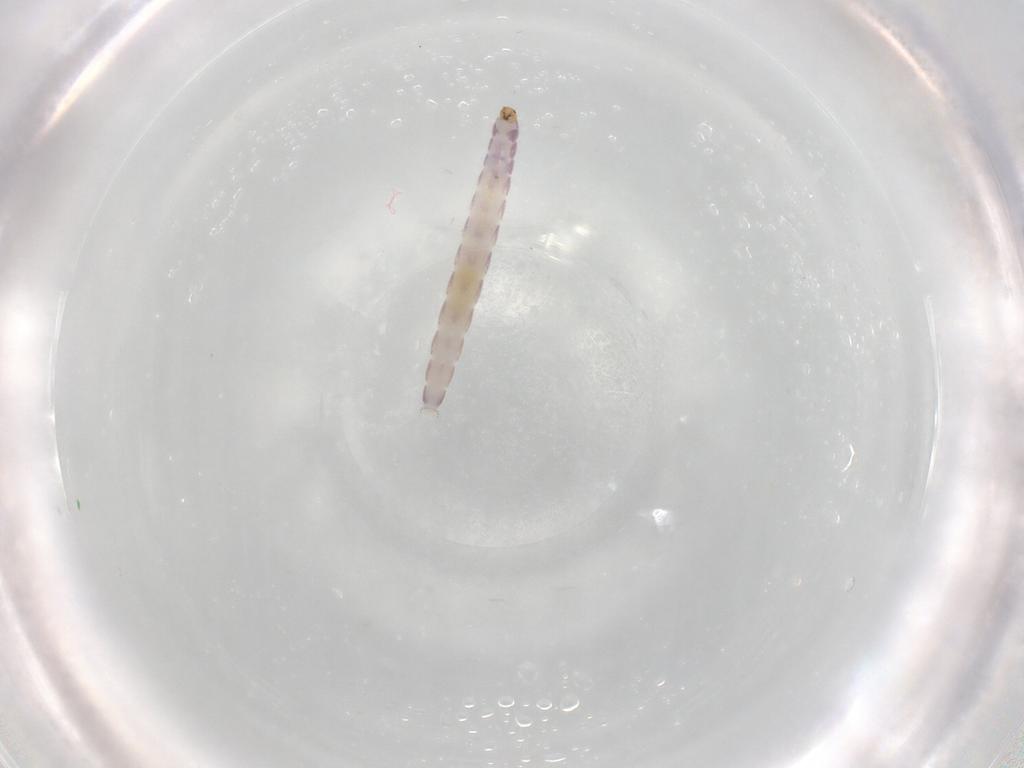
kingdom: Animalia
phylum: Arthropoda
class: Insecta
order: Diptera
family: Chironomidae
